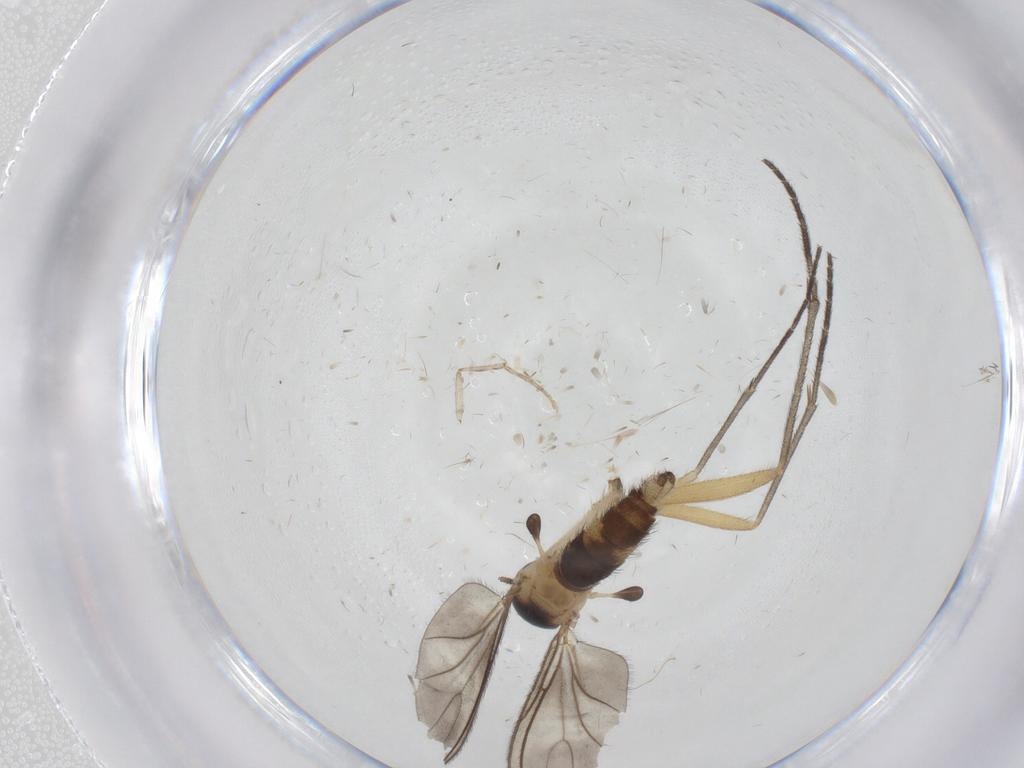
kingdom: Animalia
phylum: Arthropoda
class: Insecta
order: Diptera
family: Sciaridae
